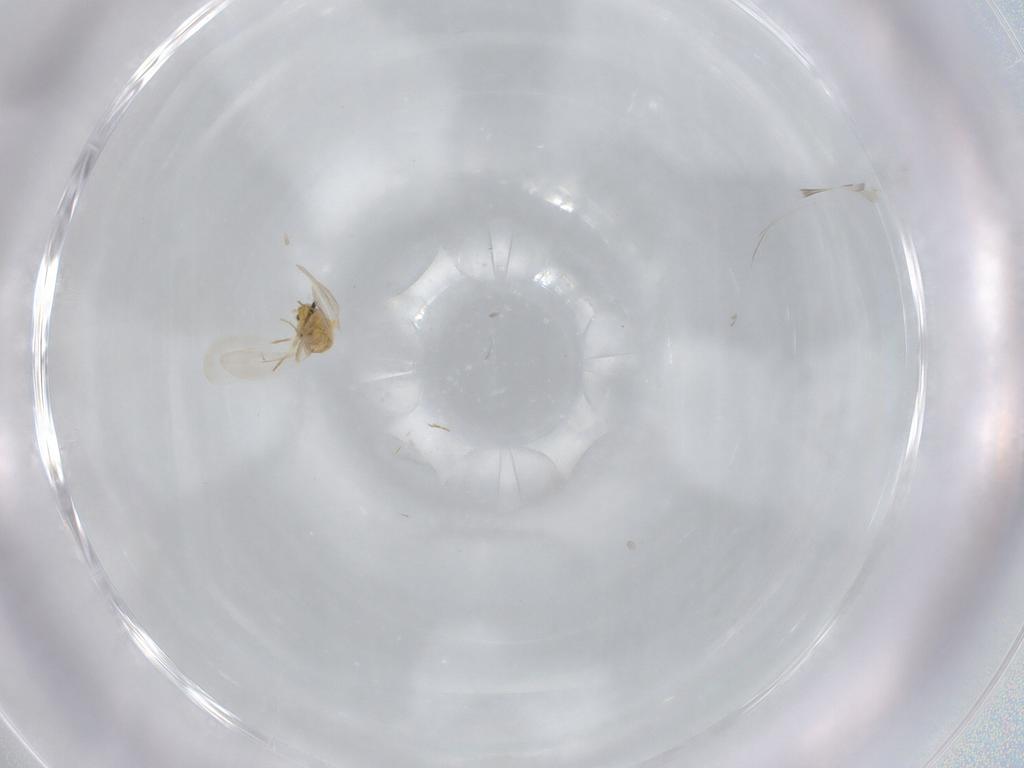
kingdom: Animalia
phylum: Arthropoda
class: Insecta
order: Hemiptera
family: Aleyrodidae
